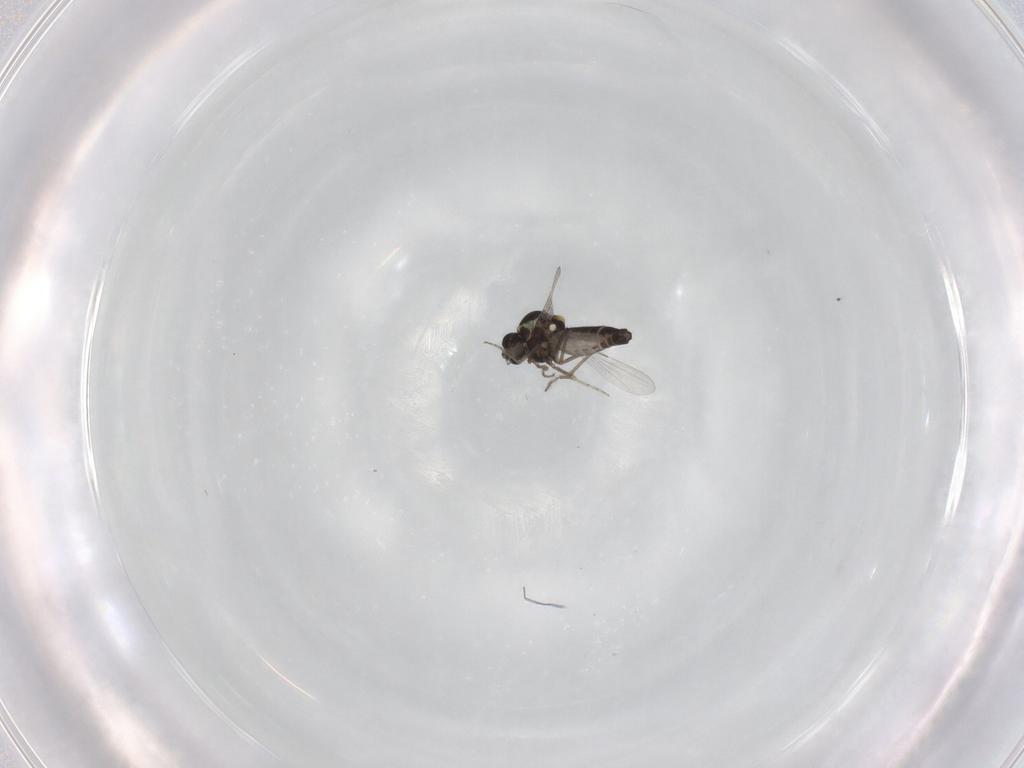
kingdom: Animalia
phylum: Arthropoda
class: Insecta
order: Diptera
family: Ceratopogonidae
